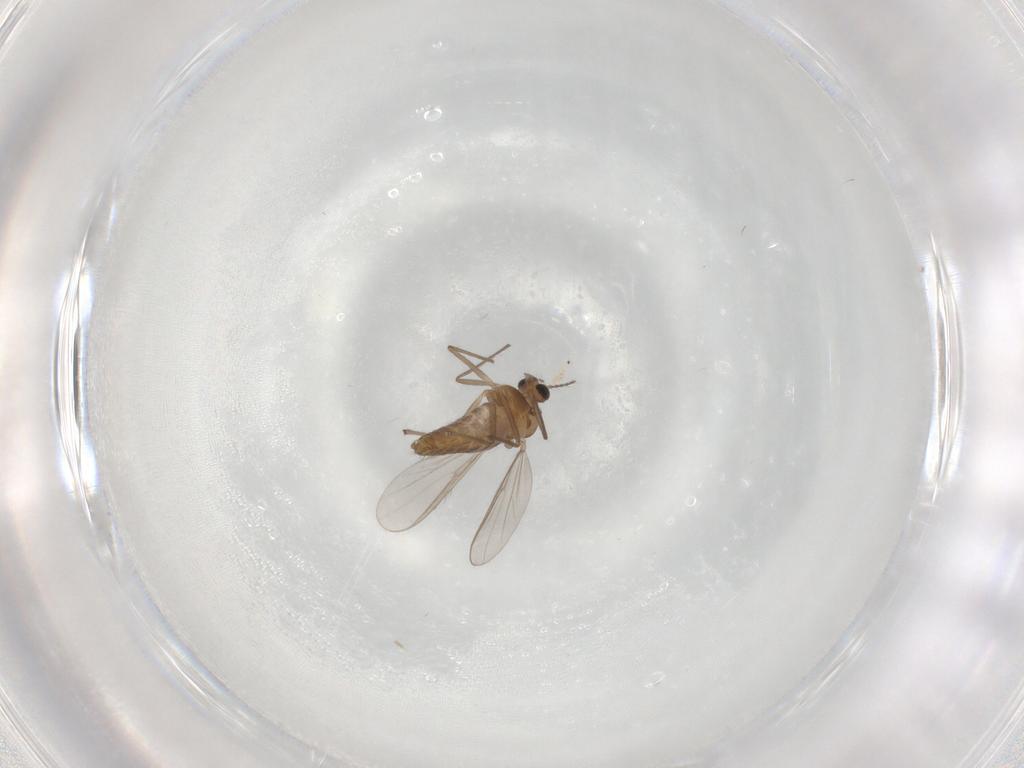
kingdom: Animalia
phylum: Arthropoda
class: Insecta
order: Diptera
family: Chironomidae
